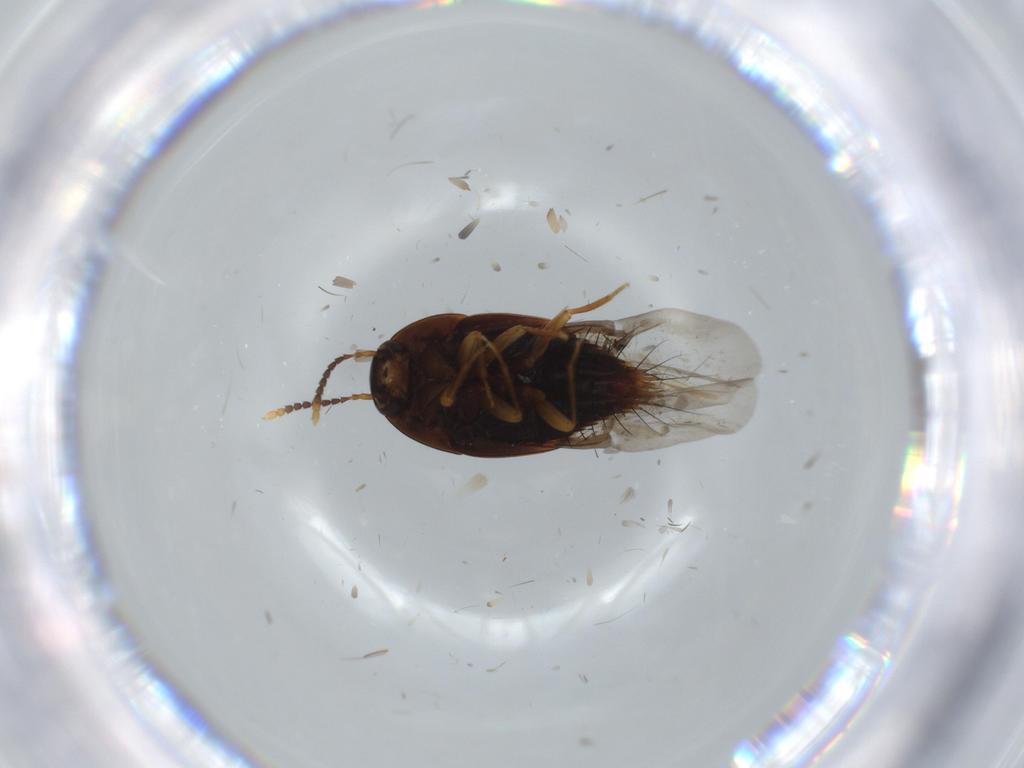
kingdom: Animalia
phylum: Arthropoda
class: Insecta
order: Coleoptera
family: Staphylinidae
